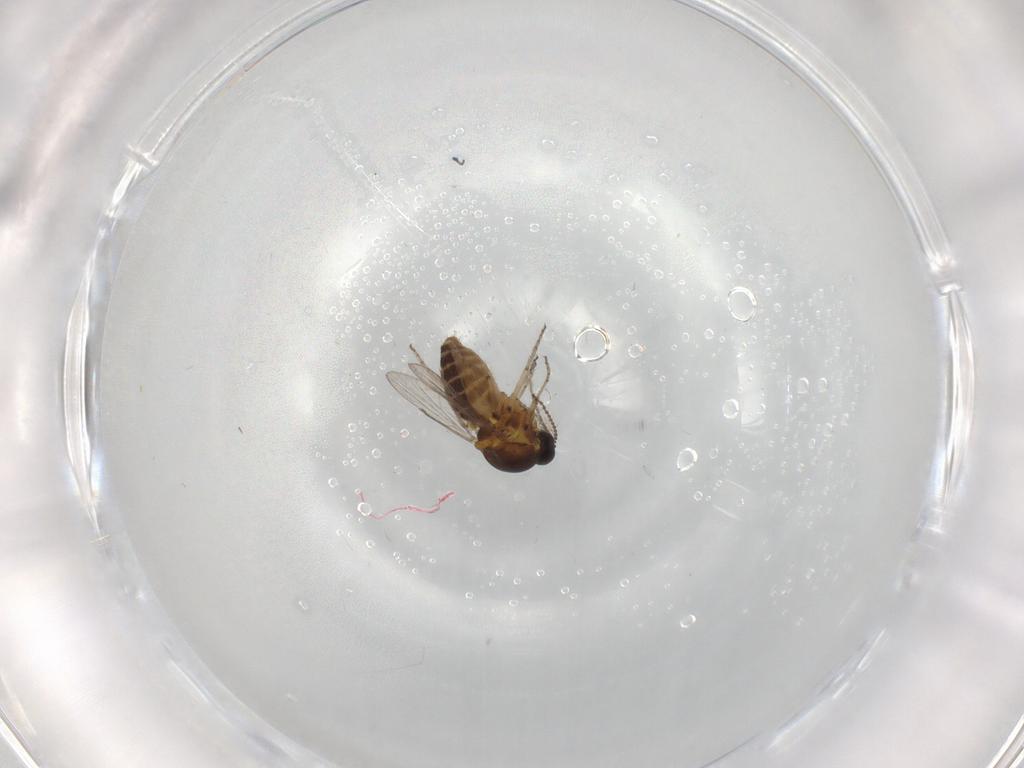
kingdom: Animalia
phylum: Arthropoda
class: Insecta
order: Diptera
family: Ceratopogonidae
